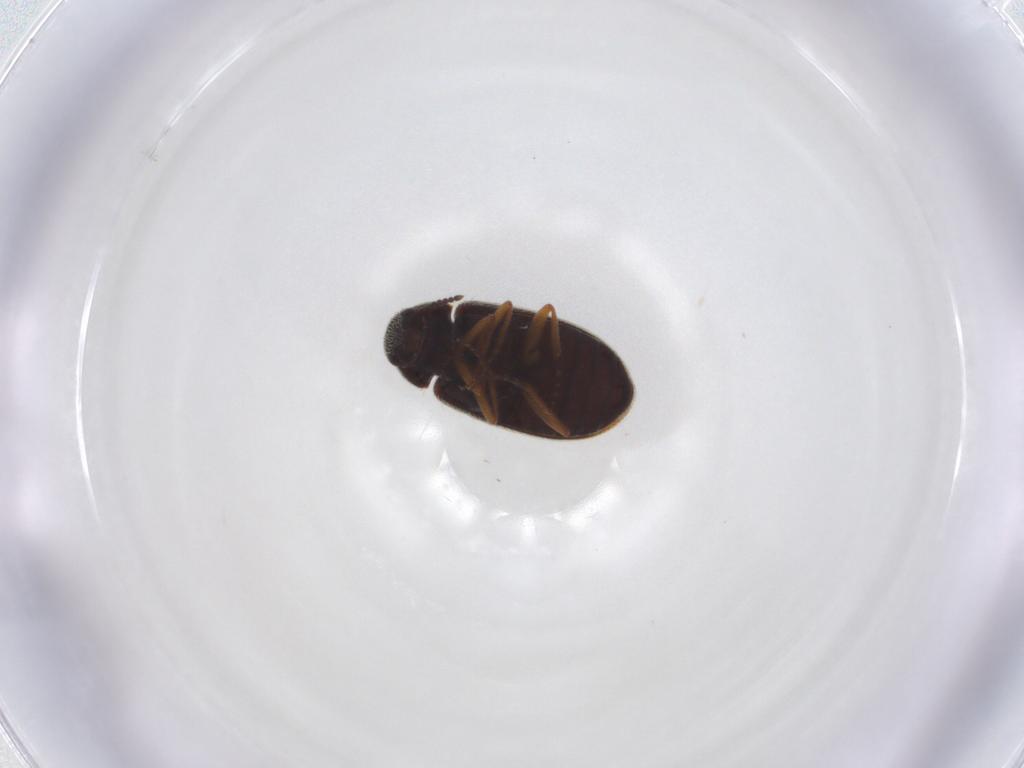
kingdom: Animalia
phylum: Arthropoda
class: Insecta
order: Coleoptera
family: Rhadalidae
